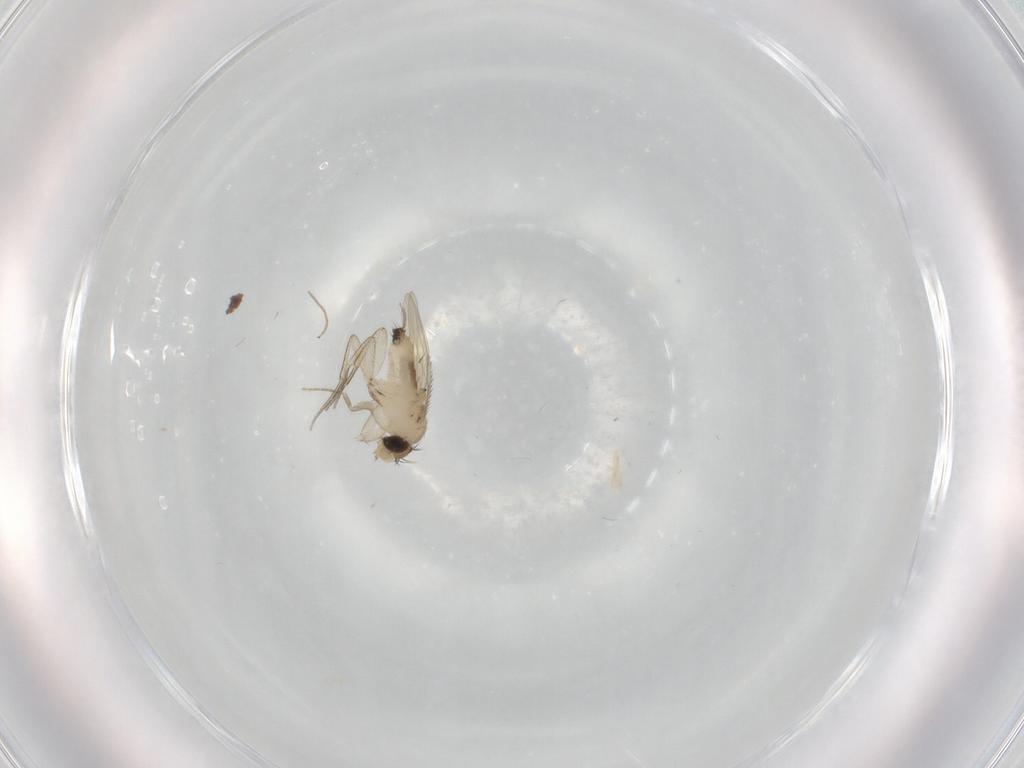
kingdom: Animalia
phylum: Arthropoda
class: Insecta
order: Diptera
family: Phoridae
